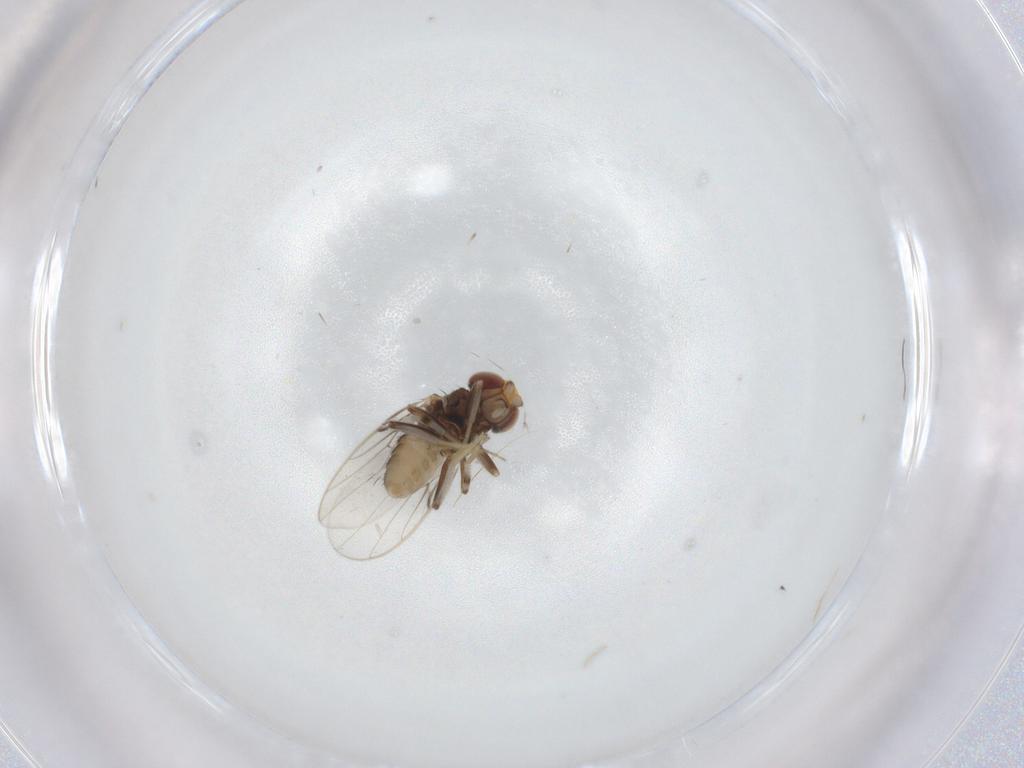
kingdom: Animalia
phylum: Arthropoda
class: Insecta
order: Diptera
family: Chloropidae
